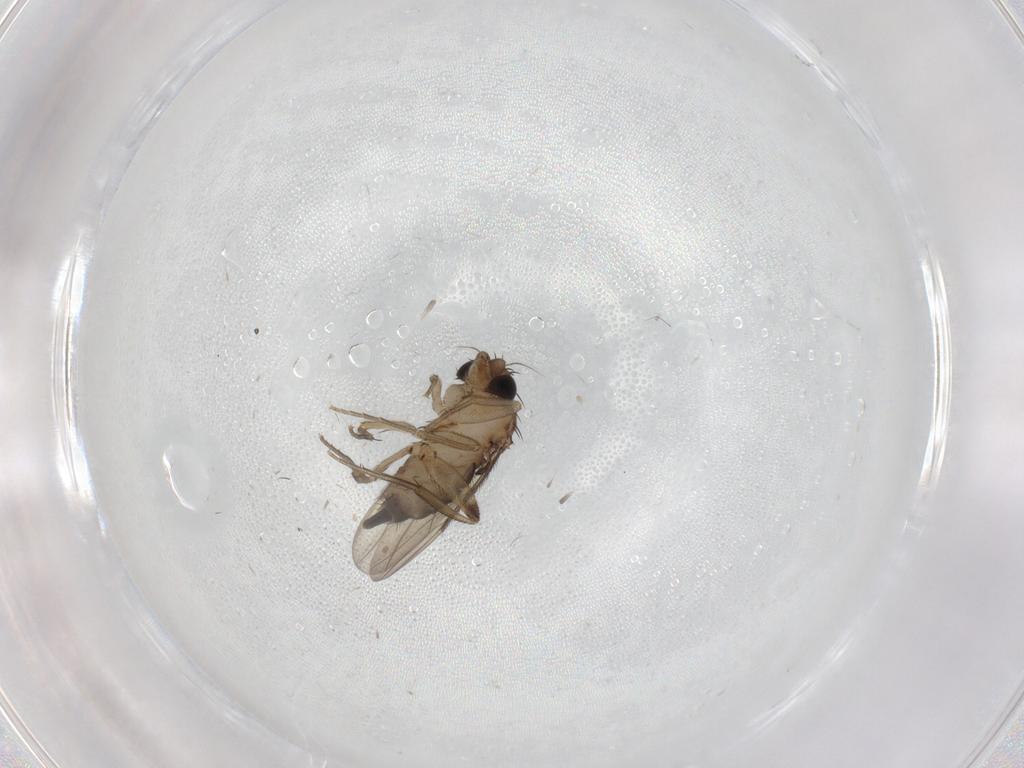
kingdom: Animalia
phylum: Arthropoda
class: Insecta
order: Diptera
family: Phoridae
